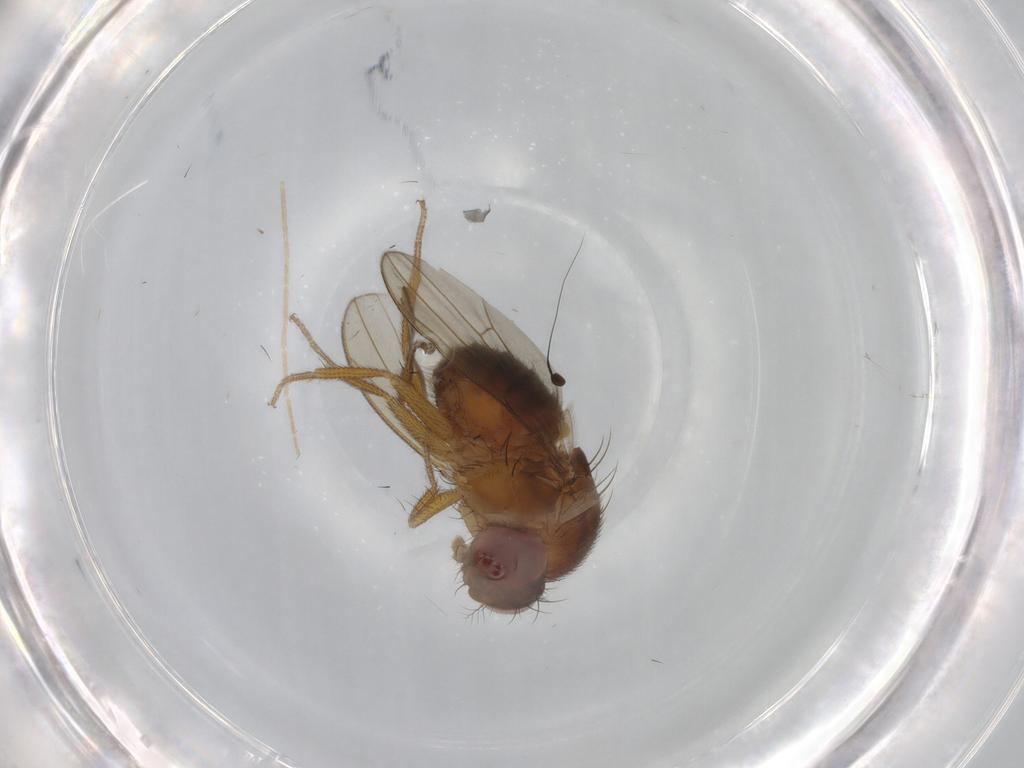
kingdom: Animalia
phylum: Arthropoda
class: Insecta
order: Diptera
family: Drosophilidae
